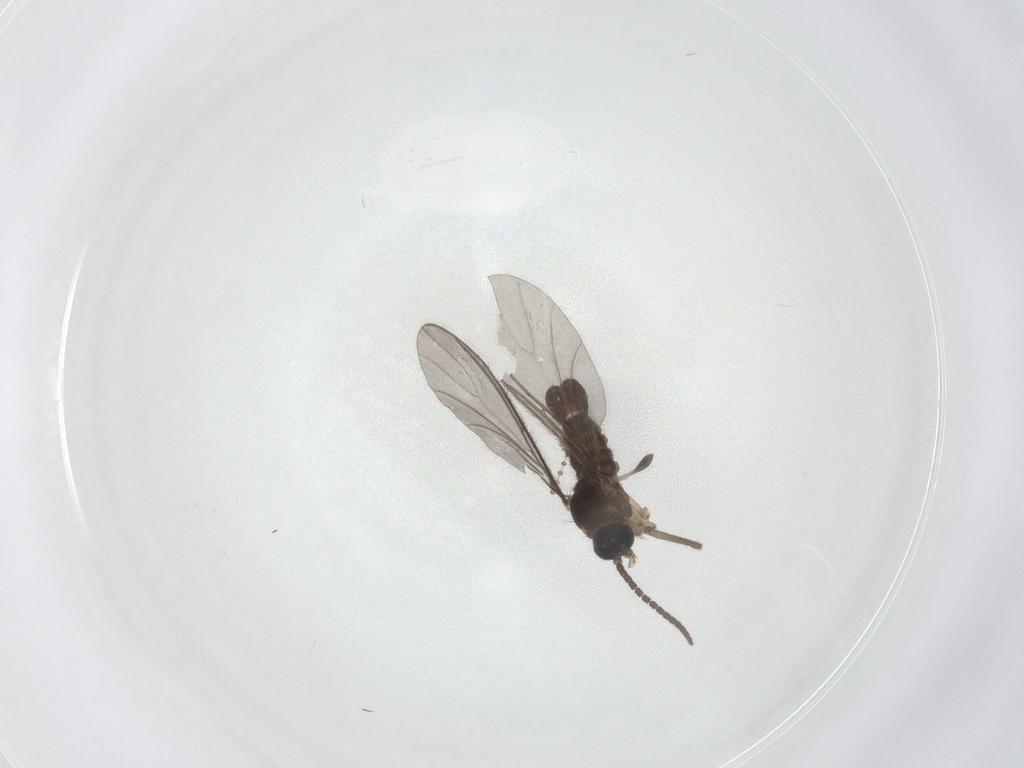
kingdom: Animalia
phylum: Arthropoda
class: Insecta
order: Diptera
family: Sciaridae
